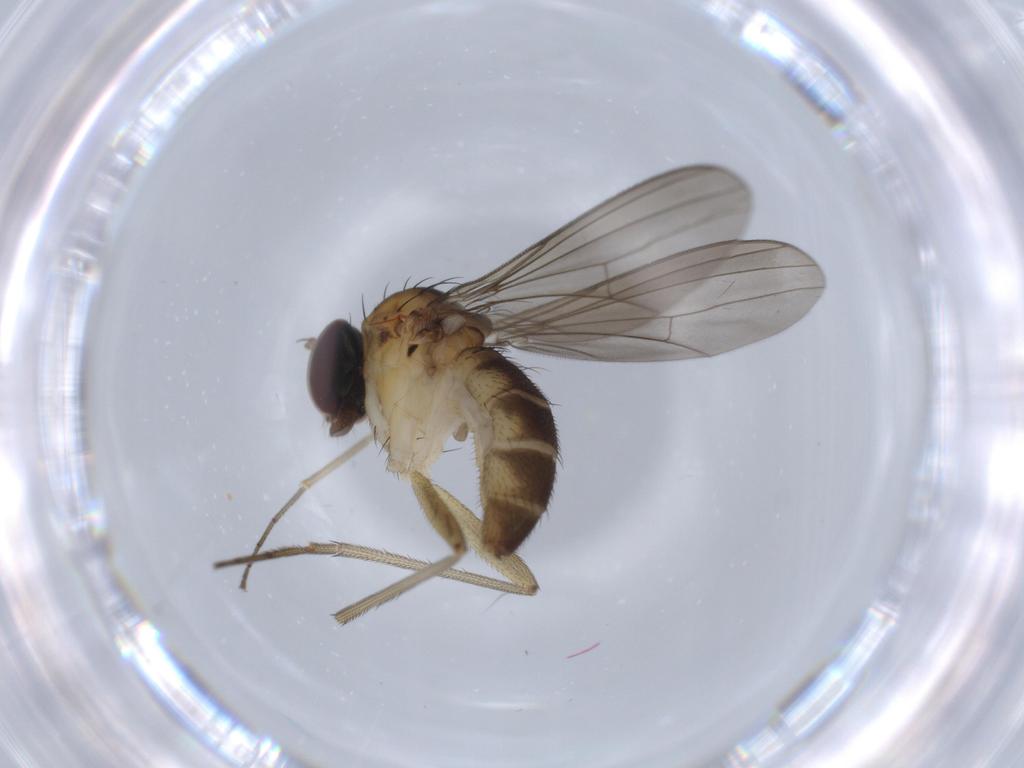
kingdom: Animalia
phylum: Arthropoda
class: Insecta
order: Diptera
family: Dolichopodidae
